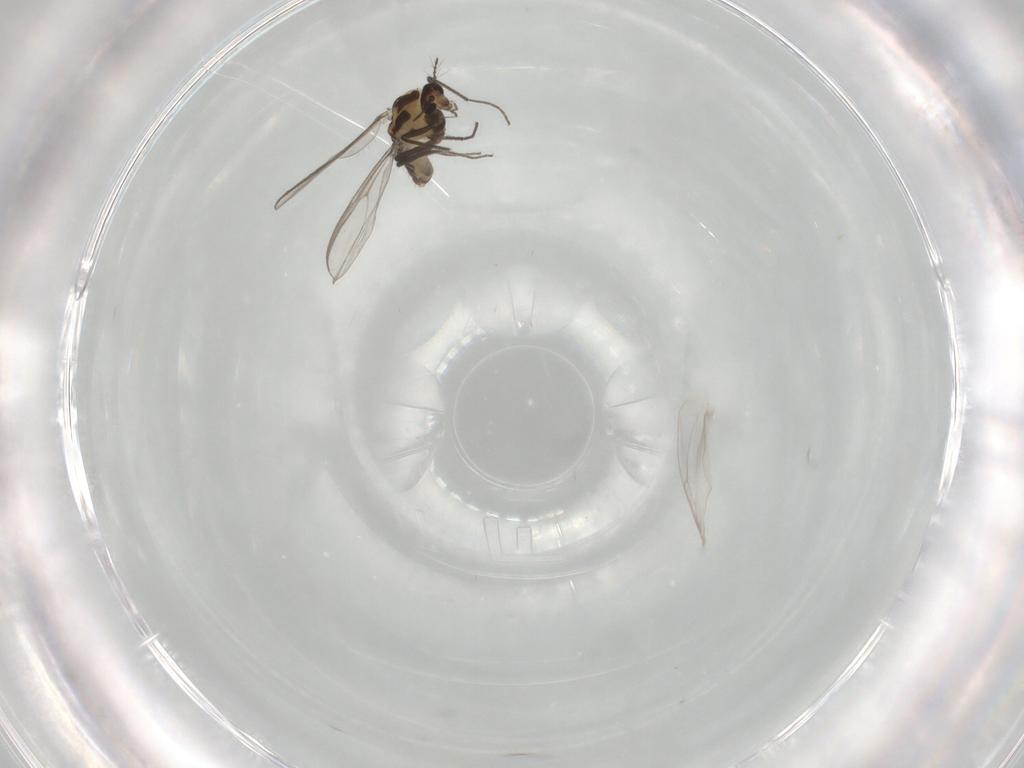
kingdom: Animalia
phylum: Arthropoda
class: Insecta
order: Diptera
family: Hybotidae
